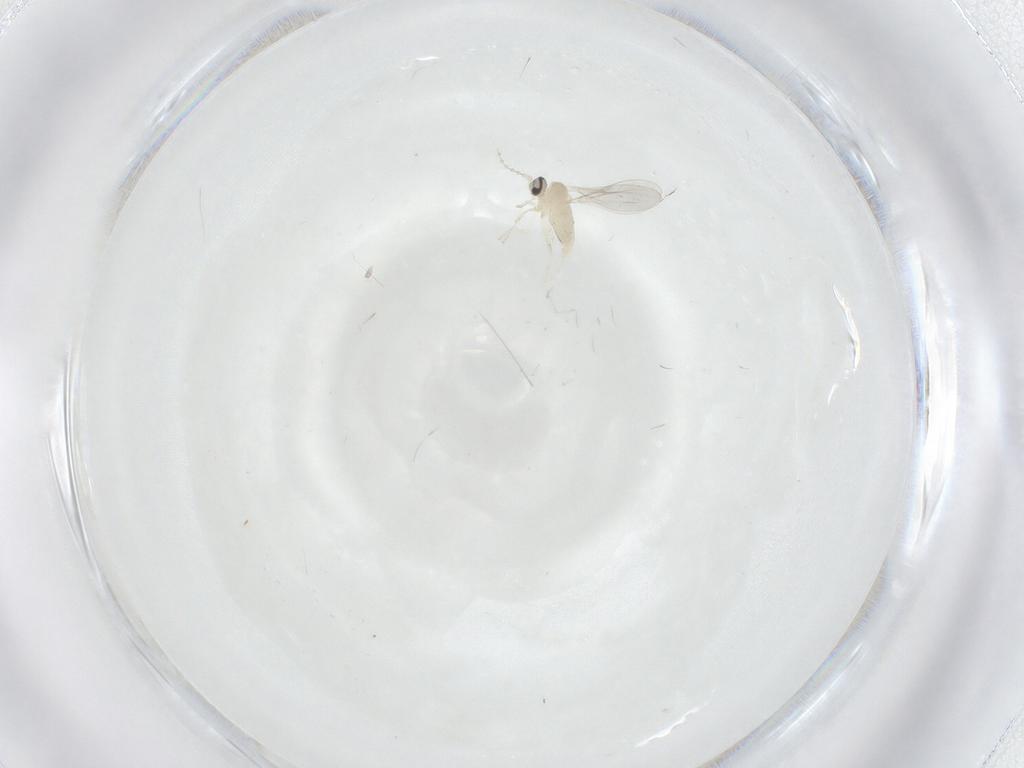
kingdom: Animalia
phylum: Arthropoda
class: Insecta
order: Diptera
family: Cecidomyiidae
